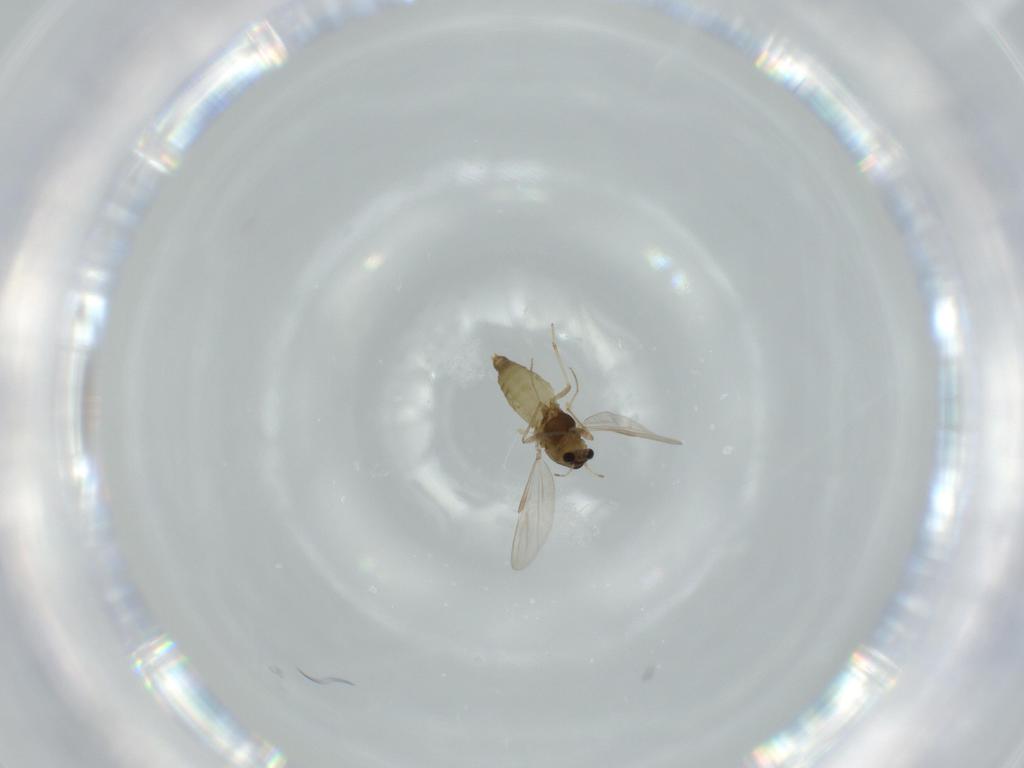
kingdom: Animalia
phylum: Arthropoda
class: Insecta
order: Diptera
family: Chironomidae
